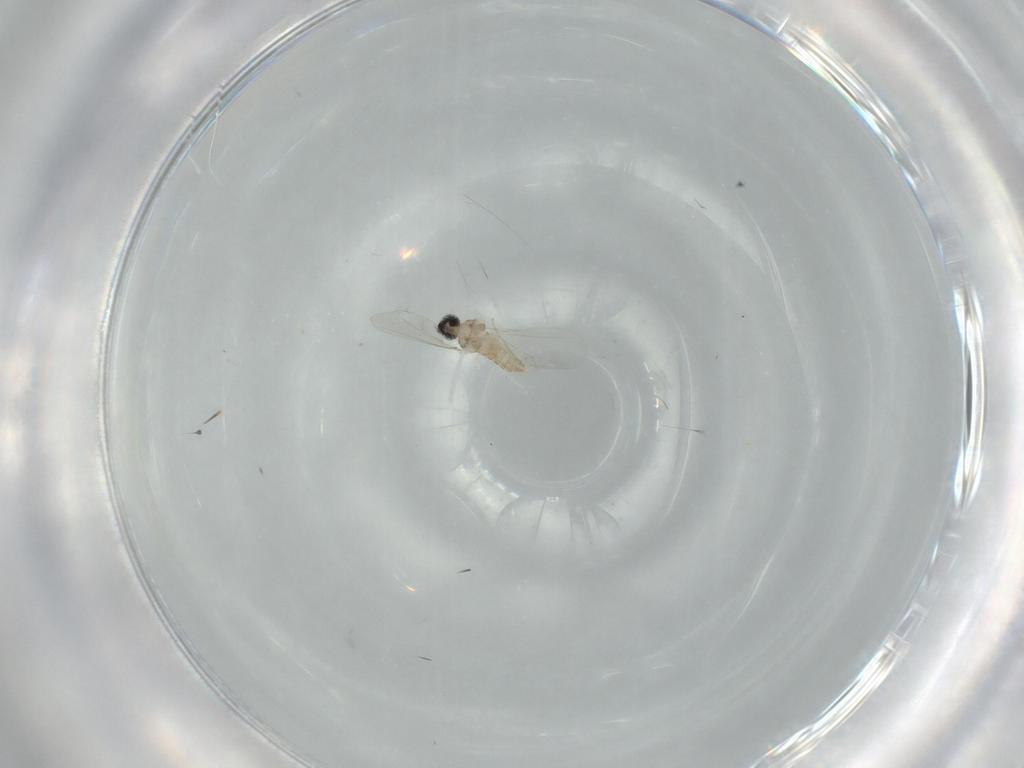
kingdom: Animalia
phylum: Arthropoda
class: Insecta
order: Diptera
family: Cecidomyiidae
